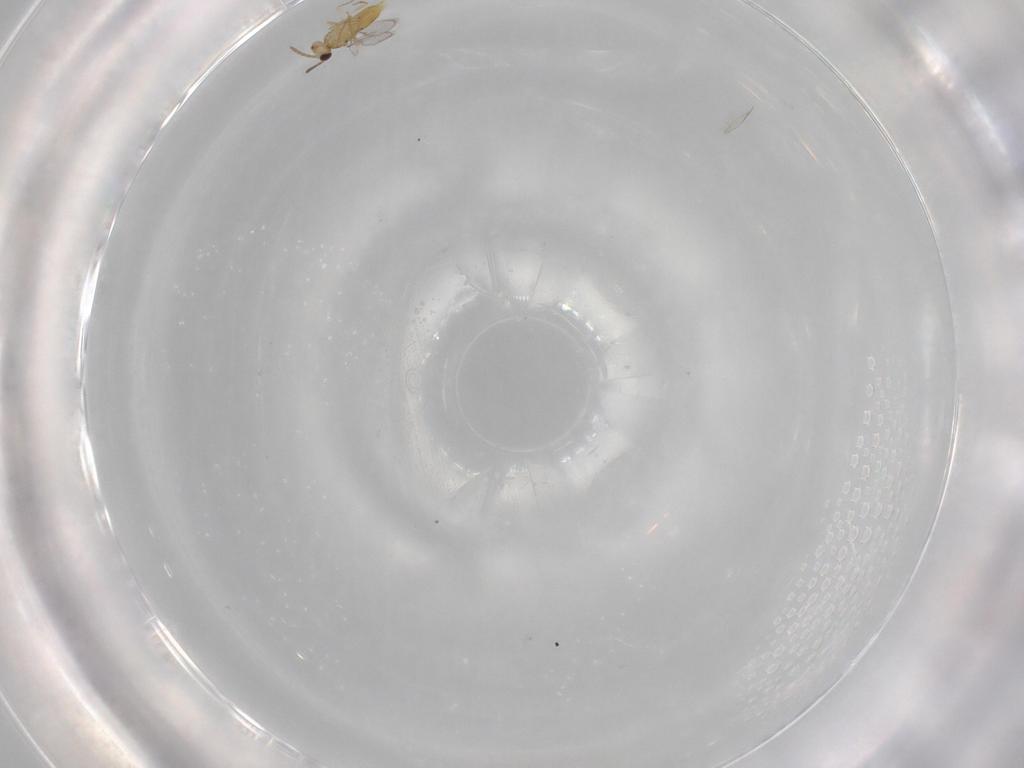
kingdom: Animalia
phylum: Arthropoda
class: Insecta
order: Hymenoptera
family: Aphelinidae
